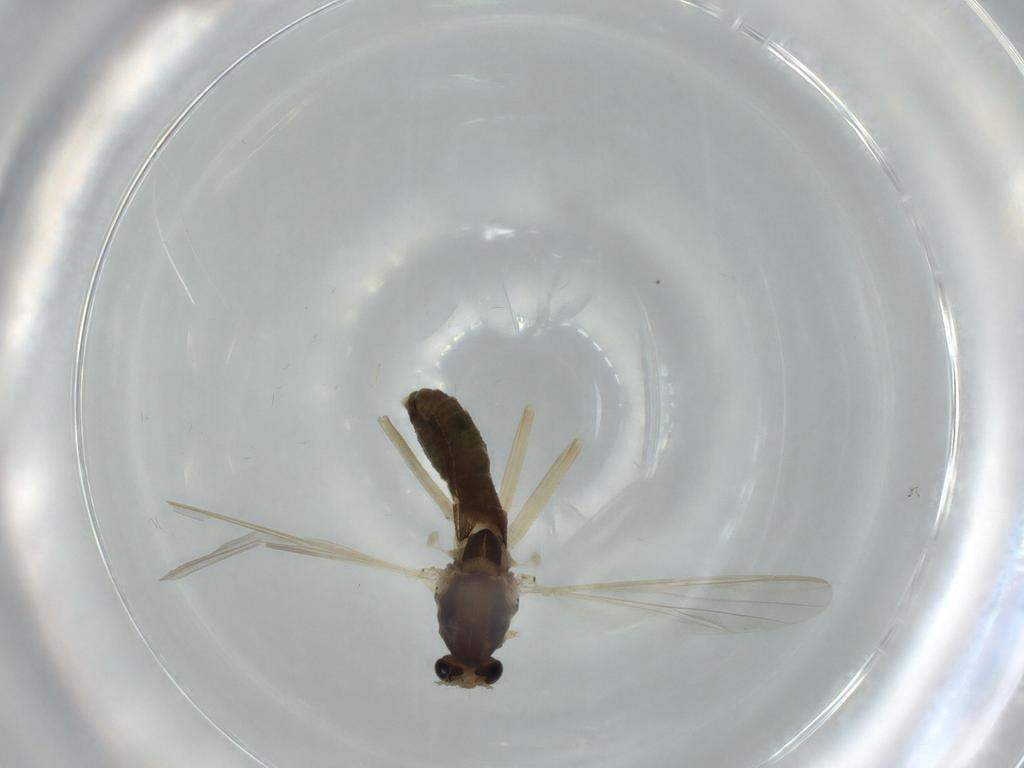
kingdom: Animalia
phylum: Arthropoda
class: Insecta
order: Diptera
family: Chironomidae
